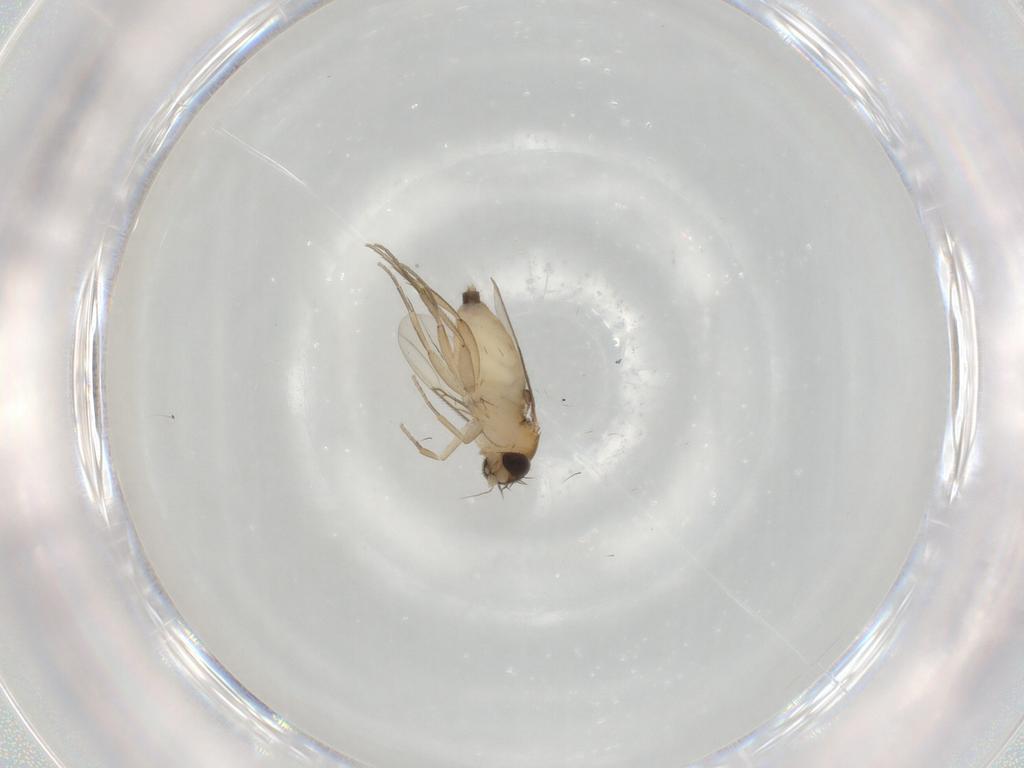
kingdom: Animalia
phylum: Arthropoda
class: Insecta
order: Diptera
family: Phoridae
